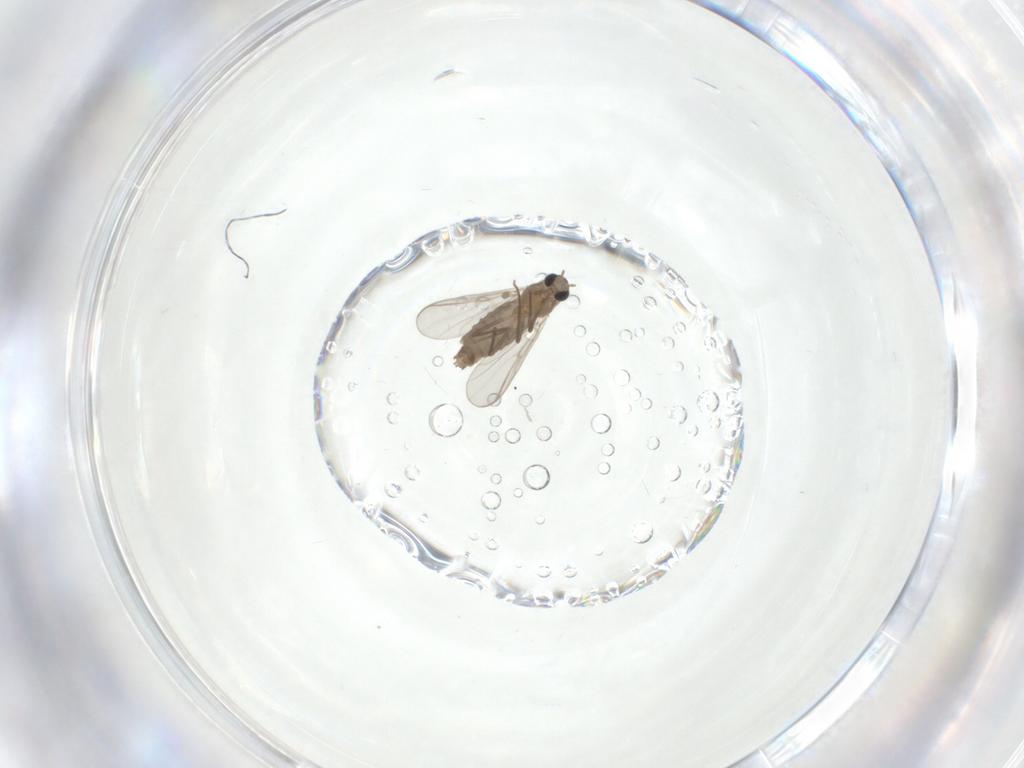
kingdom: Animalia
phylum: Arthropoda
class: Insecta
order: Diptera
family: Chironomidae
